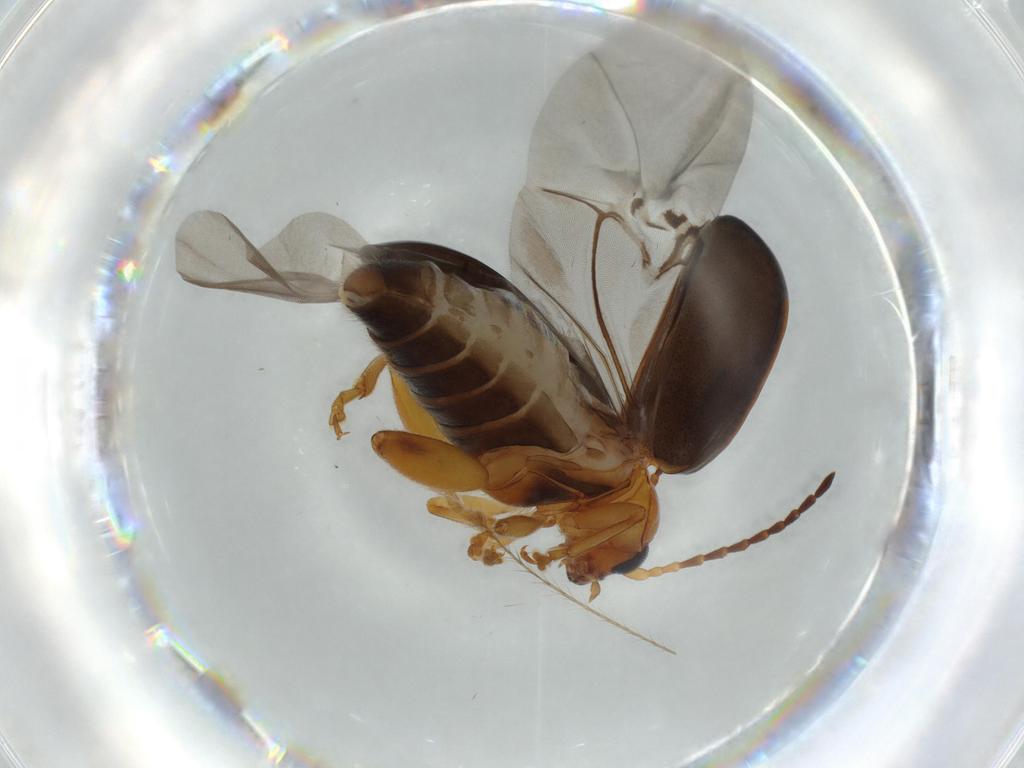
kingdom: Animalia
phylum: Arthropoda
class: Insecta
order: Coleoptera
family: Chrysomelidae
